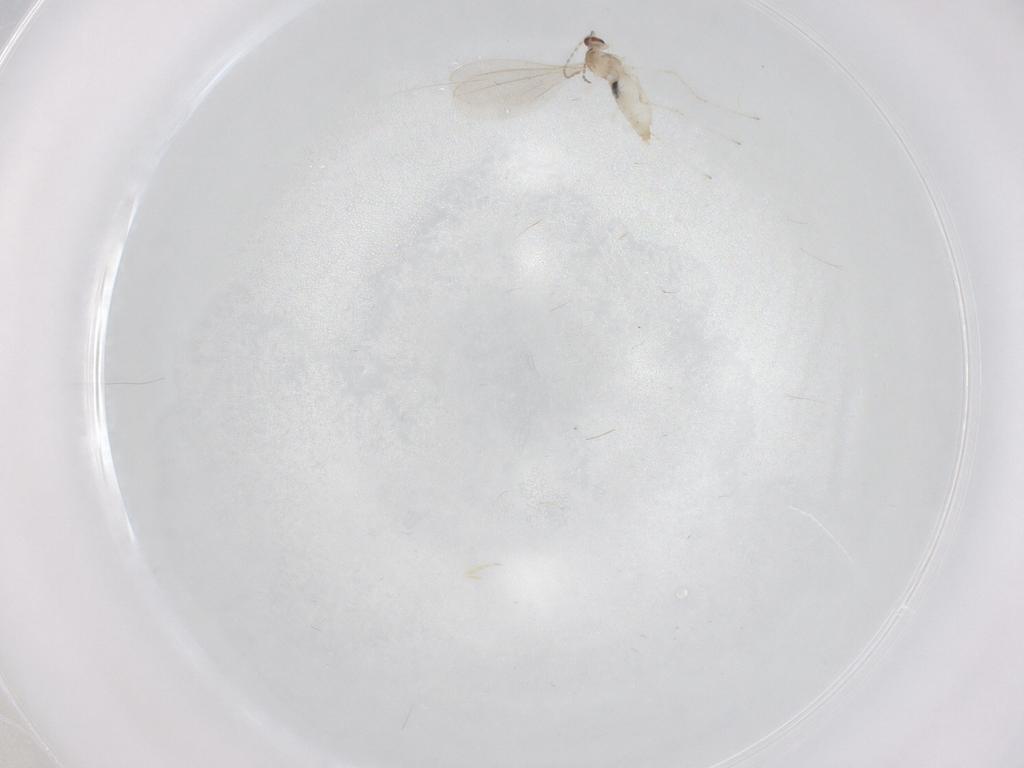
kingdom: Animalia
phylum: Arthropoda
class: Insecta
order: Diptera
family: Cecidomyiidae
